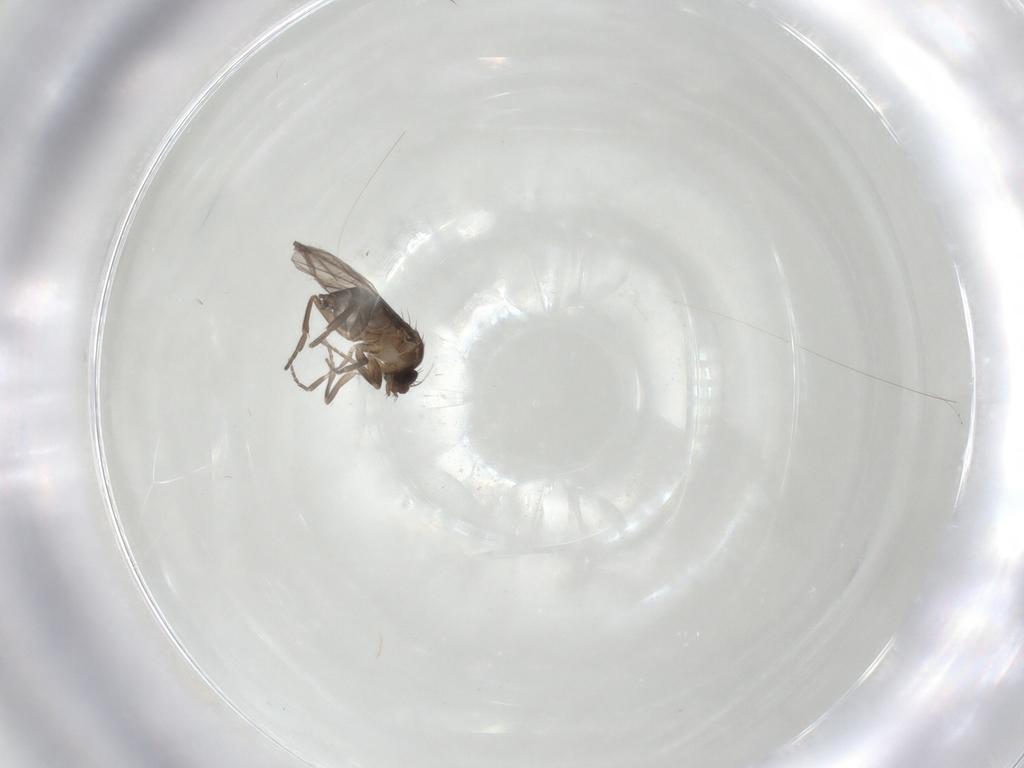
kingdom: Animalia
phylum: Arthropoda
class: Insecta
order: Diptera
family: Phoridae
